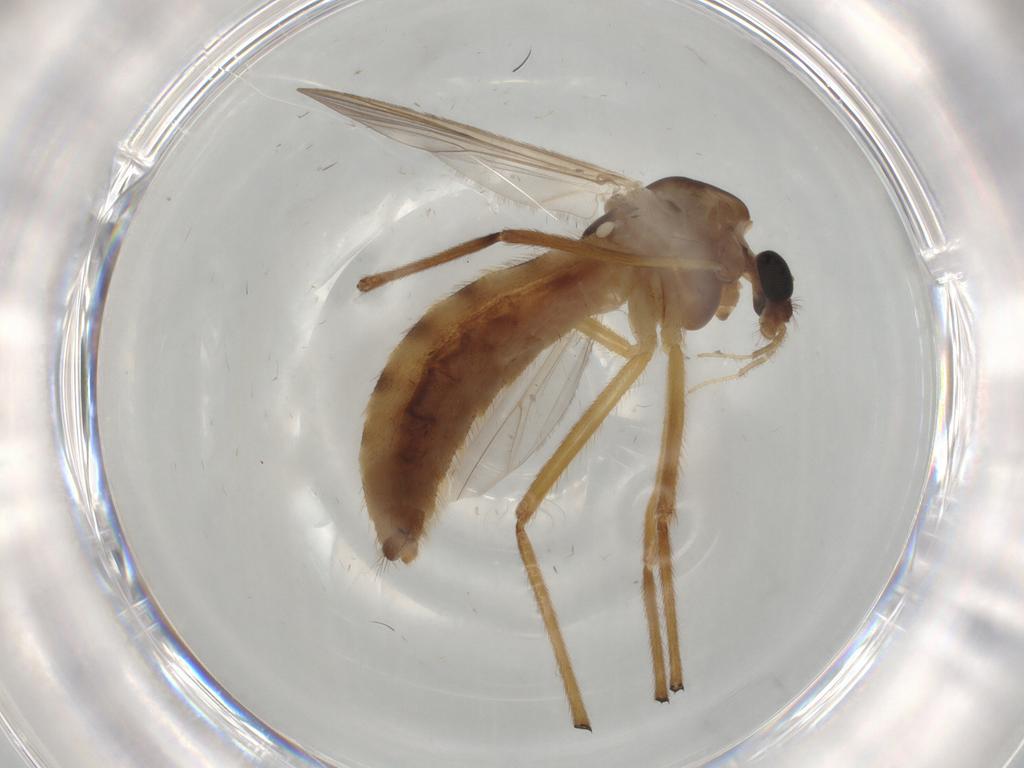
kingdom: Animalia
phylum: Arthropoda
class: Insecta
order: Diptera
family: Chironomidae
